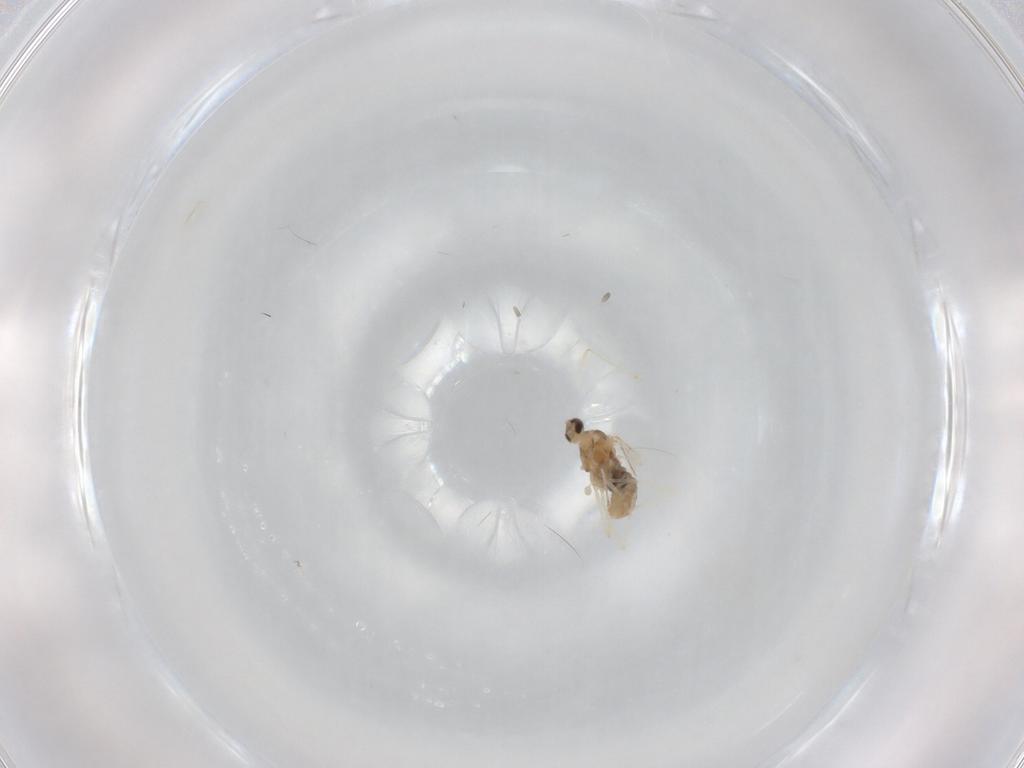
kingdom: Animalia
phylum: Arthropoda
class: Insecta
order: Diptera
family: Cecidomyiidae
